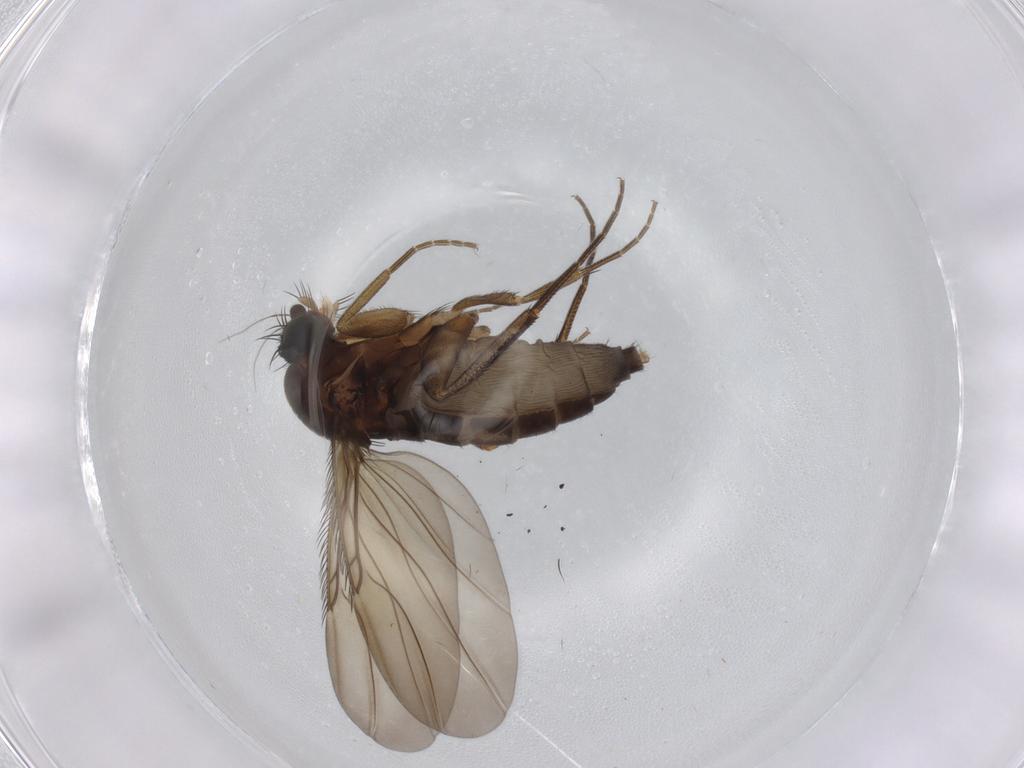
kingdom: Animalia
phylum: Arthropoda
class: Insecta
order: Diptera
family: Phoridae
